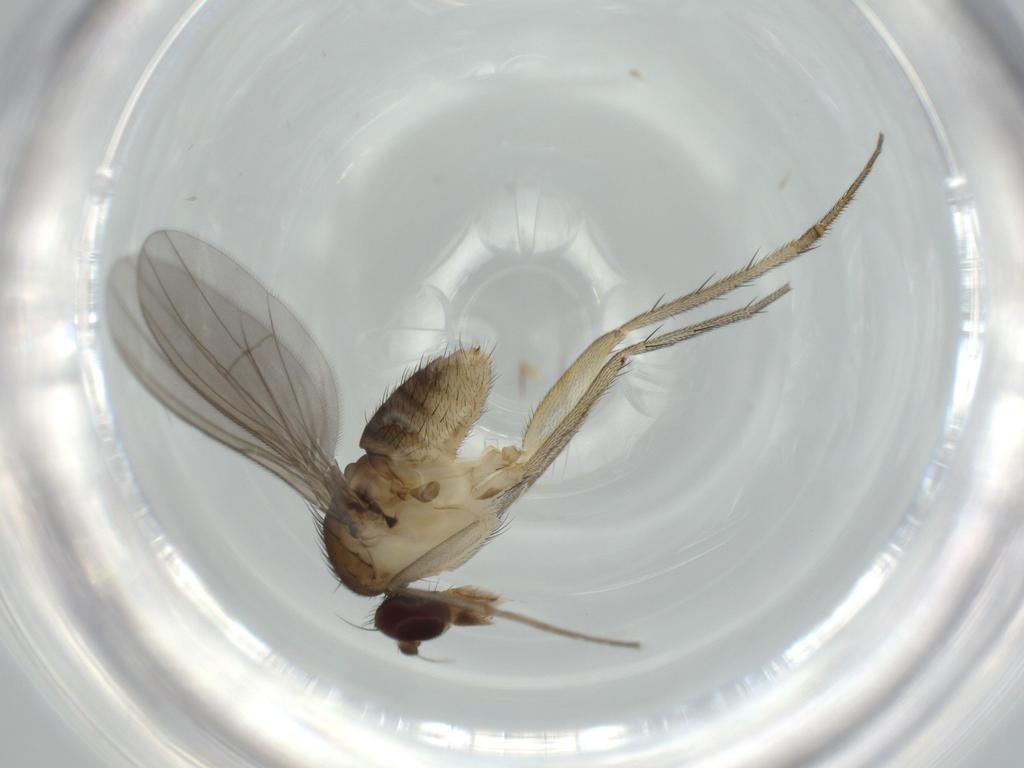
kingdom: Animalia
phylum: Arthropoda
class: Insecta
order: Diptera
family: Dolichopodidae
